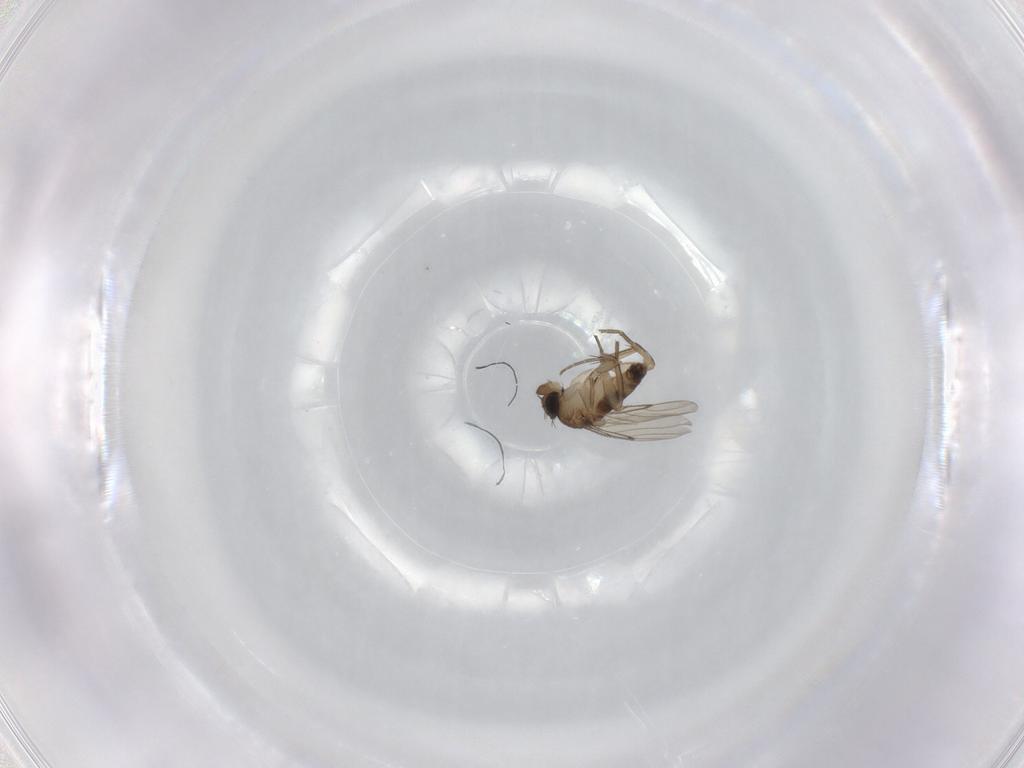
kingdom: Animalia
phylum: Arthropoda
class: Insecta
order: Diptera
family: Phoridae
